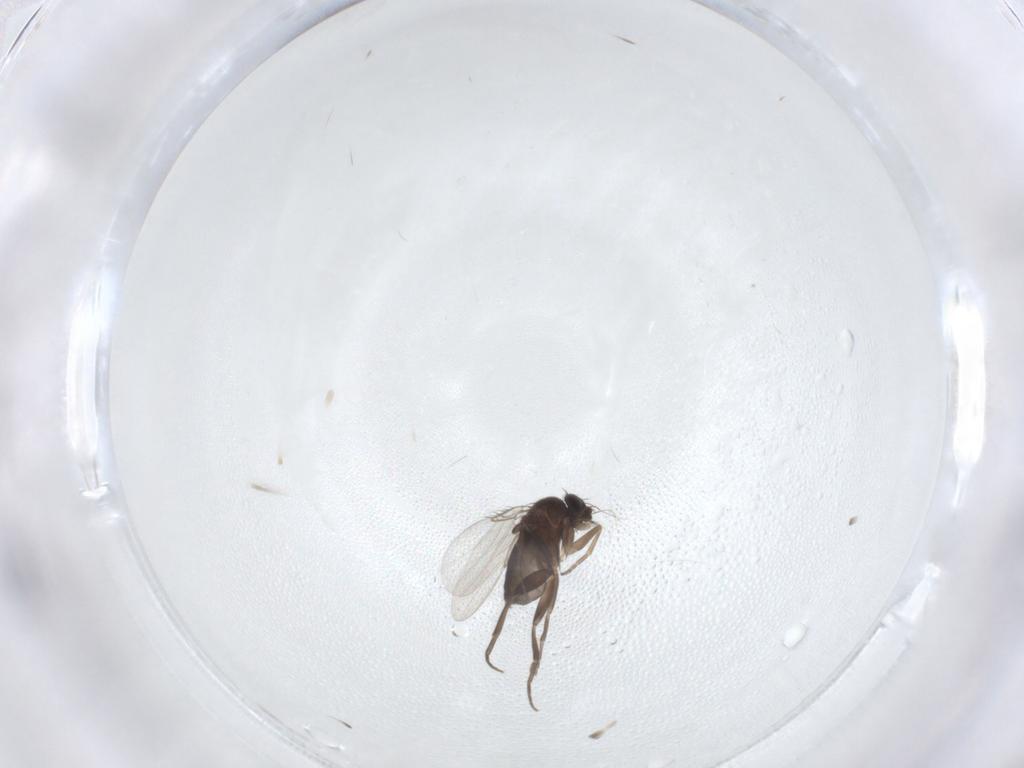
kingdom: Animalia
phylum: Arthropoda
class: Insecta
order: Diptera
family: Phoridae
